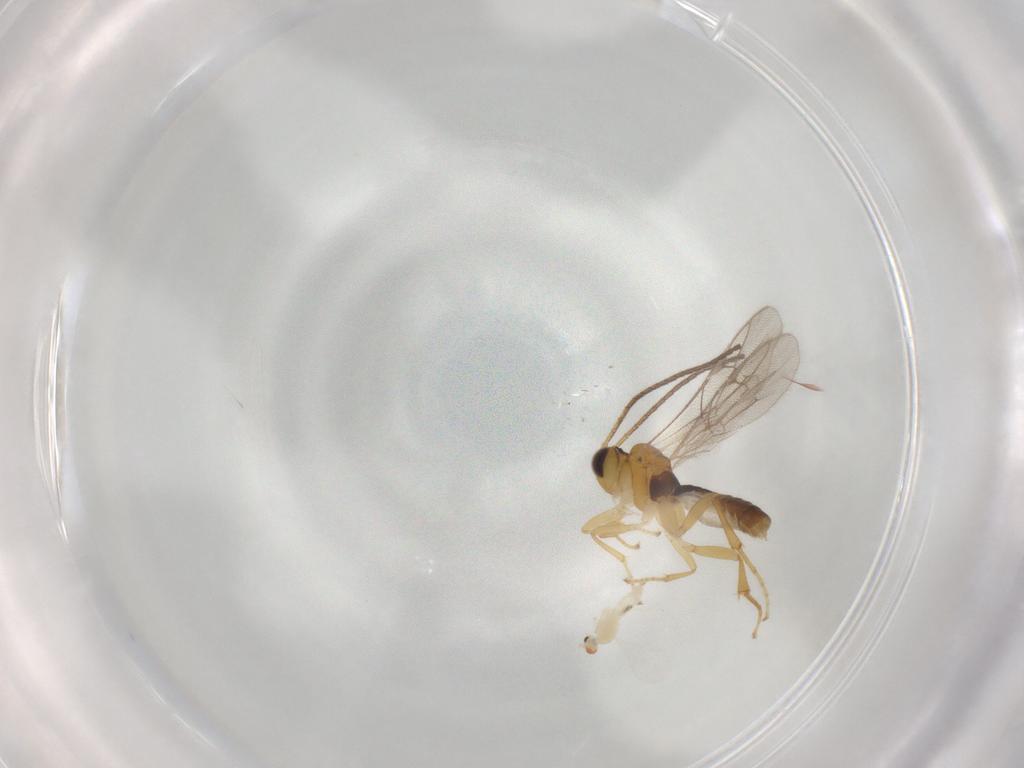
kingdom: Animalia
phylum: Arthropoda
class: Insecta
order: Hymenoptera
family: Ichneumonidae
